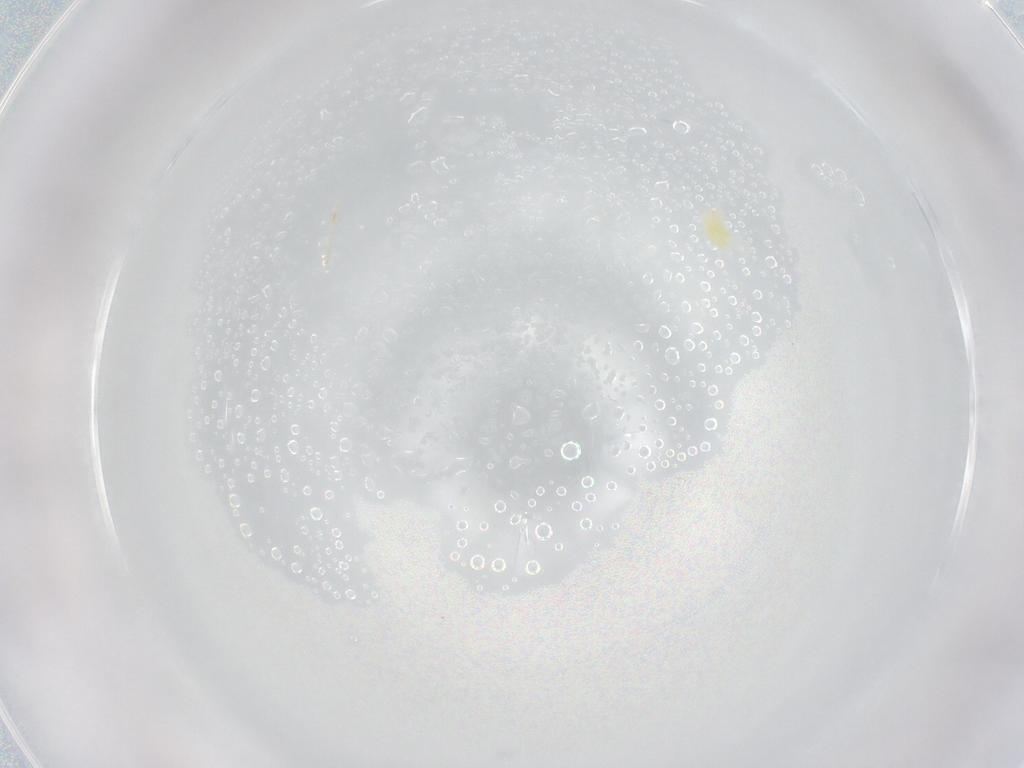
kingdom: Animalia
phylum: Arthropoda
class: Arachnida
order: Trombidiformes
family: Eupodidae
